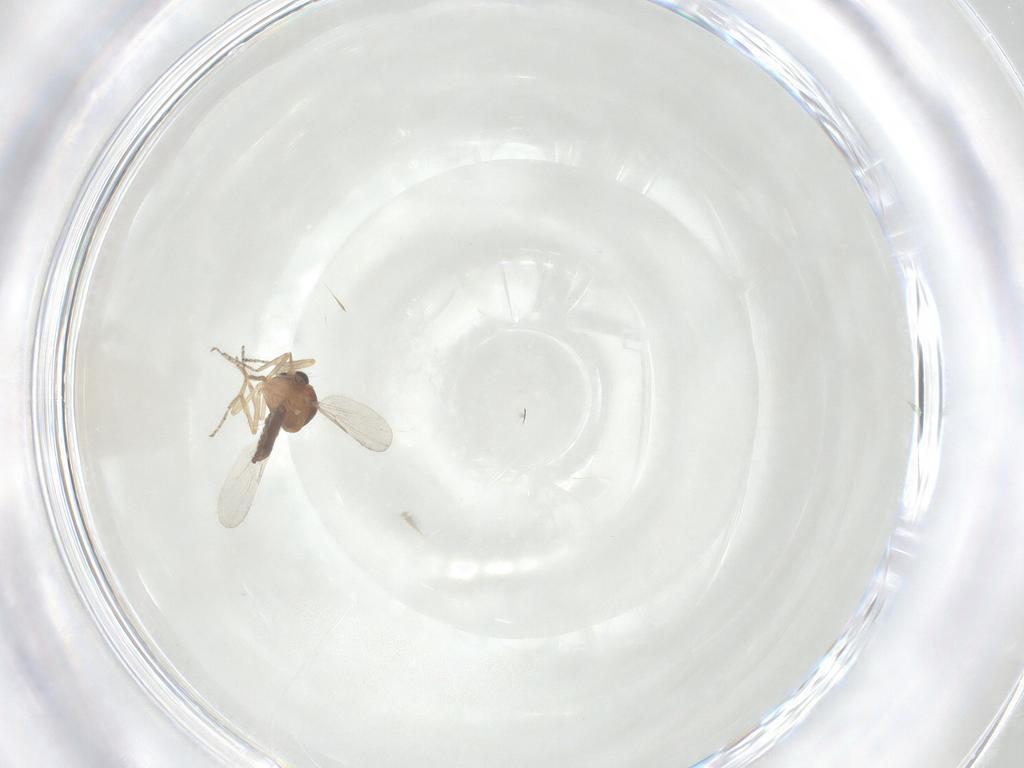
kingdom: Animalia
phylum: Arthropoda
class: Insecta
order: Diptera
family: Ceratopogonidae
